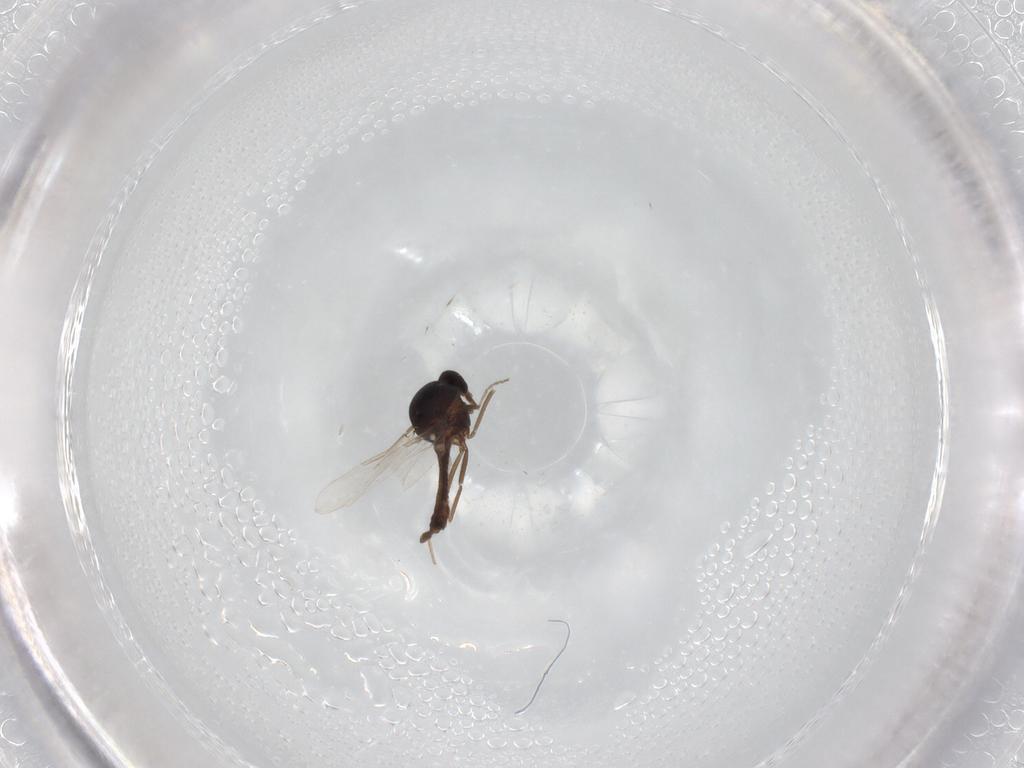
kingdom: Animalia
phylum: Arthropoda
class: Insecta
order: Diptera
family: Ceratopogonidae
